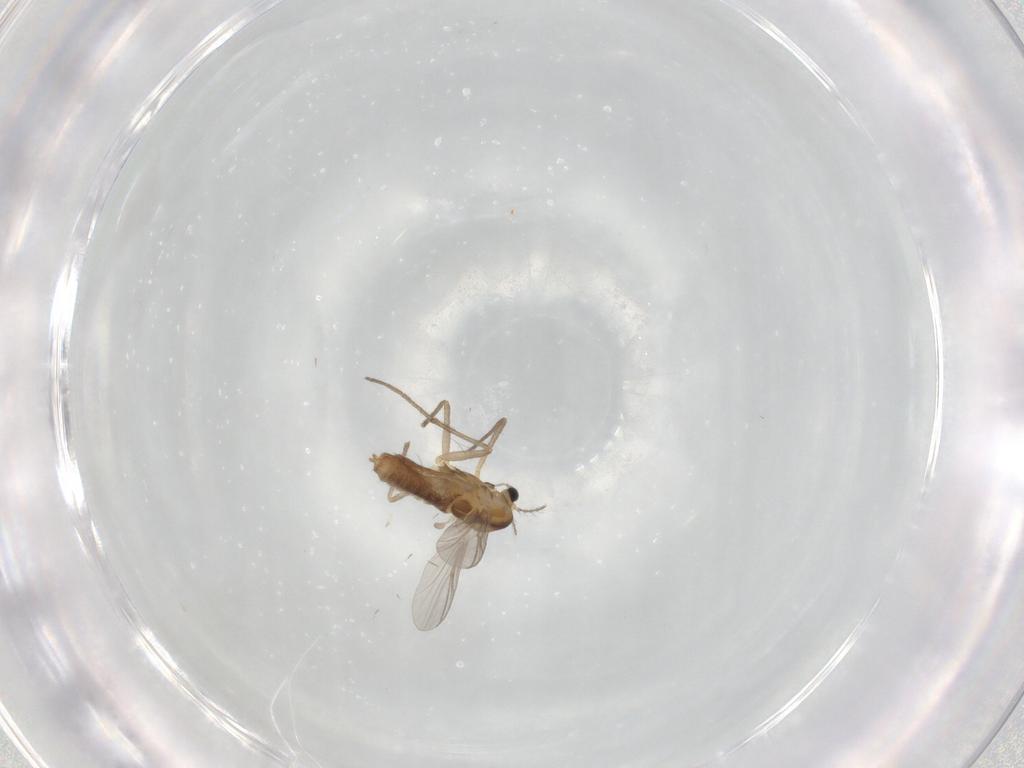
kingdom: Animalia
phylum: Arthropoda
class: Insecta
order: Diptera
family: Chironomidae
